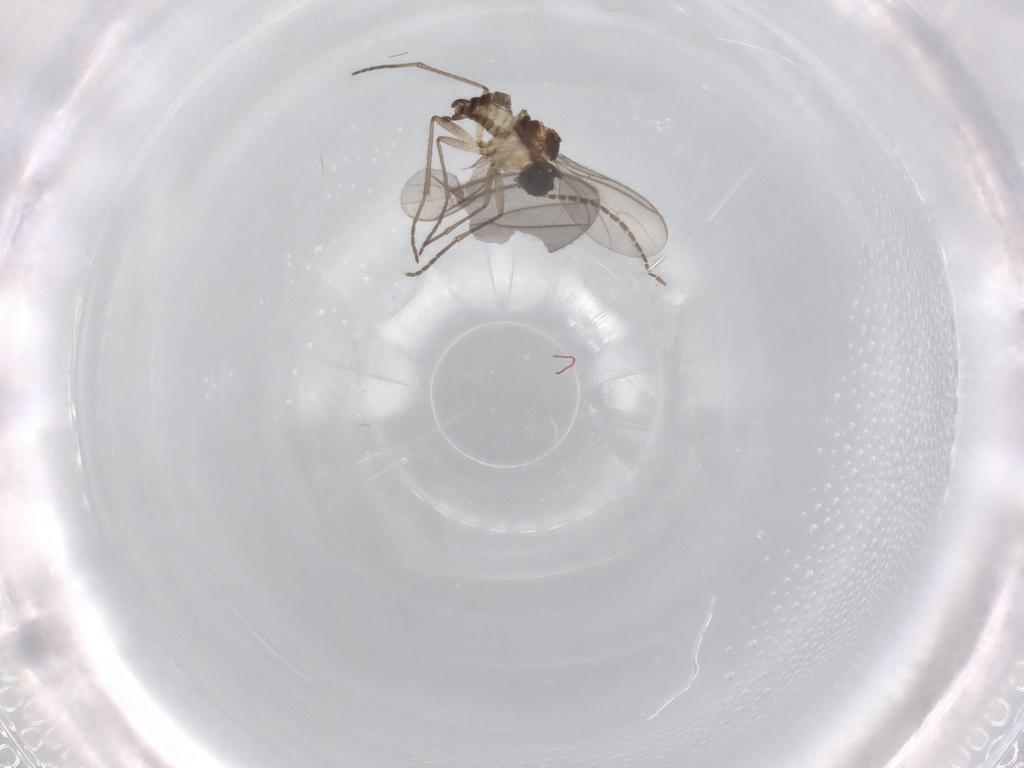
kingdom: Animalia
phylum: Arthropoda
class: Insecta
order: Diptera
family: Sciaridae
